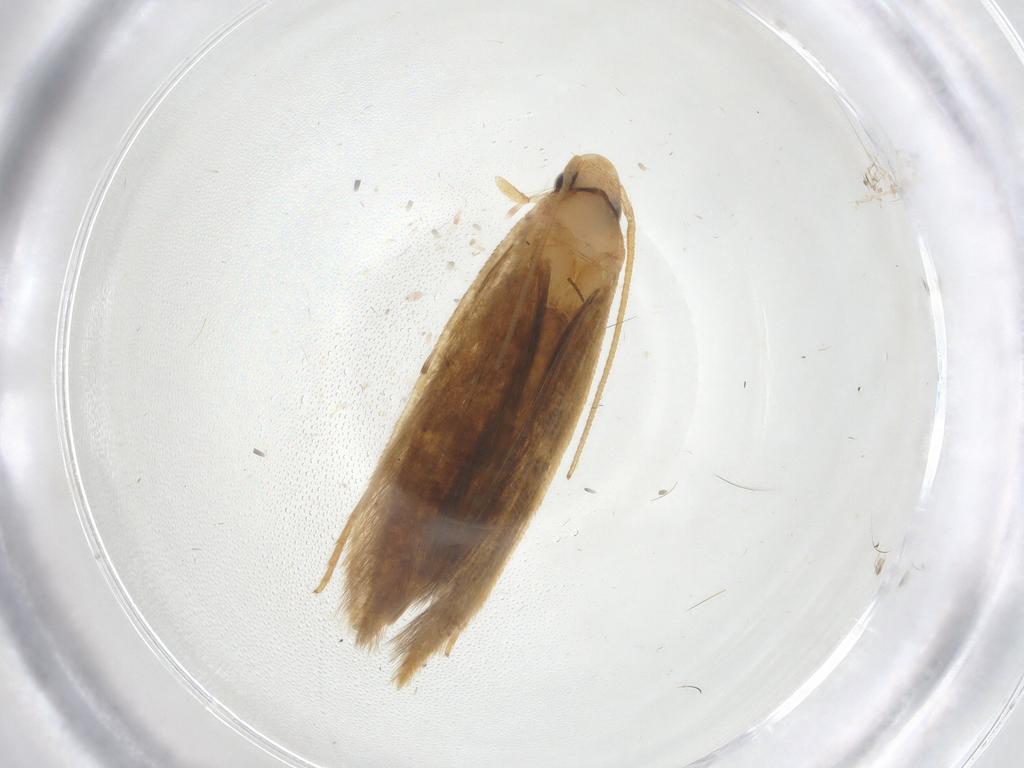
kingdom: Animalia
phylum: Arthropoda
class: Insecta
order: Lepidoptera
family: Tineidae
